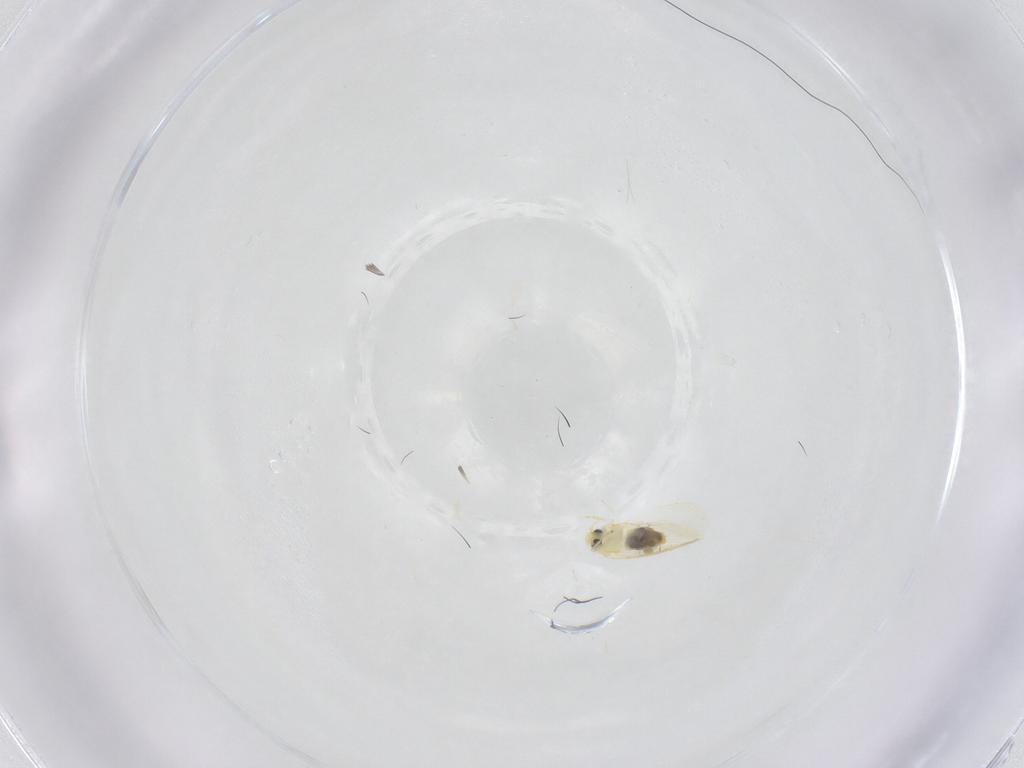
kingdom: Animalia
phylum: Arthropoda
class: Insecta
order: Hemiptera
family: Aleyrodidae
